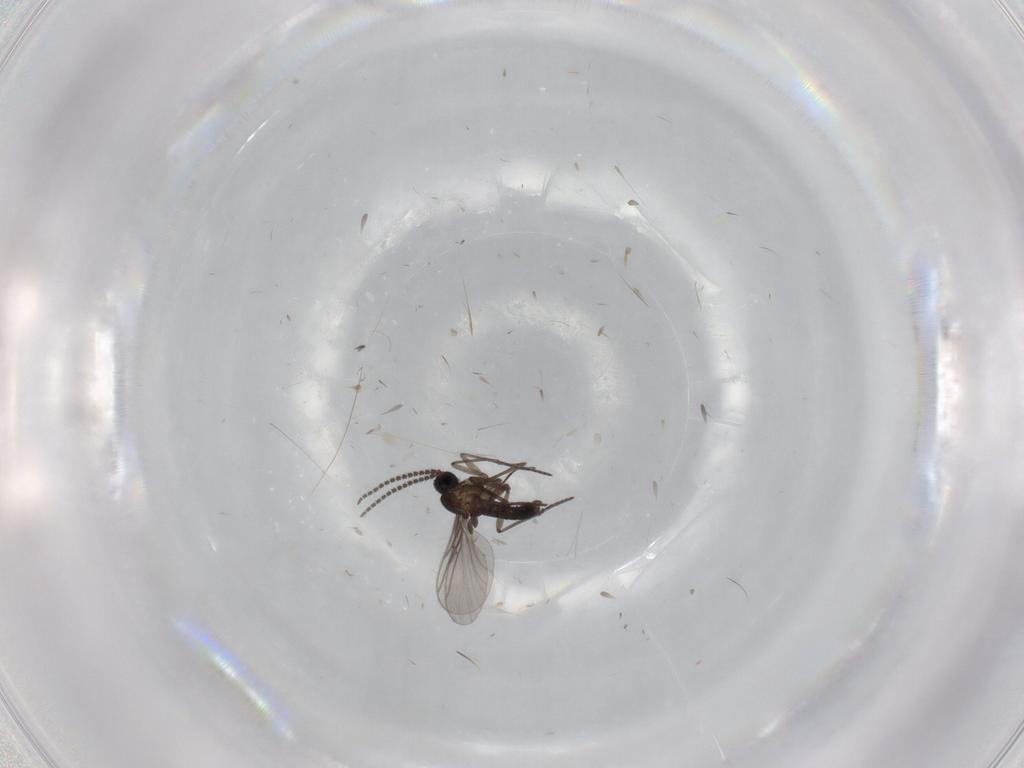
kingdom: Animalia
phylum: Arthropoda
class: Insecta
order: Diptera
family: Sciaridae
